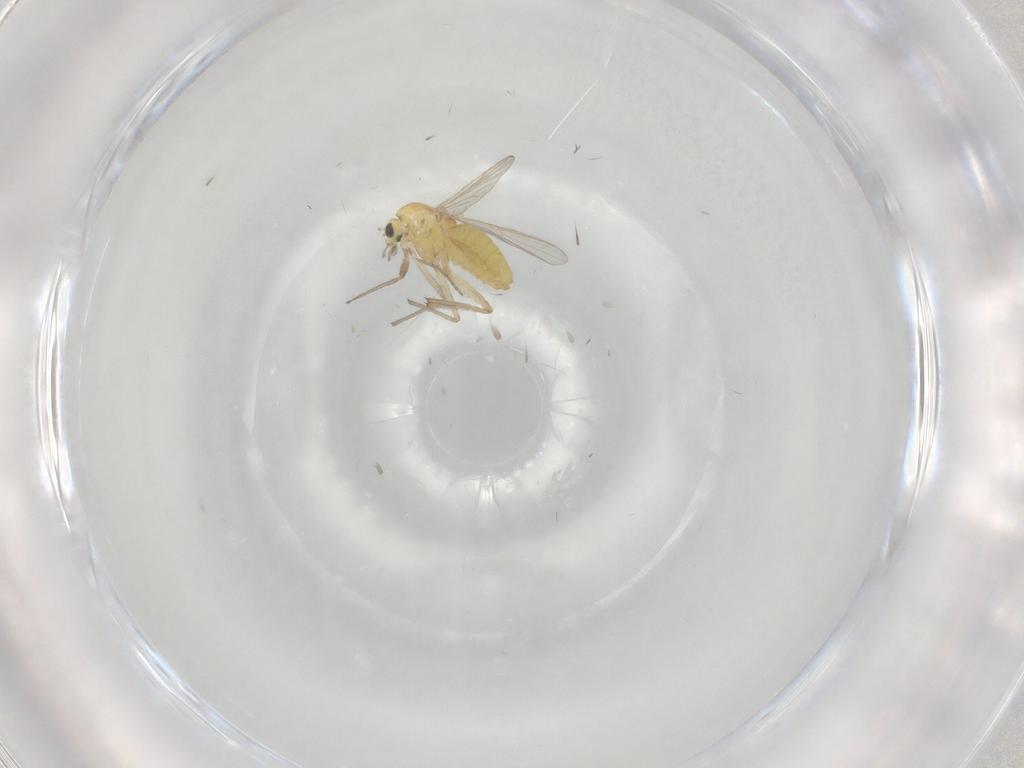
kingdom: Animalia
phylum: Arthropoda
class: Insecta
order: Diptera
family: Chironomidae
